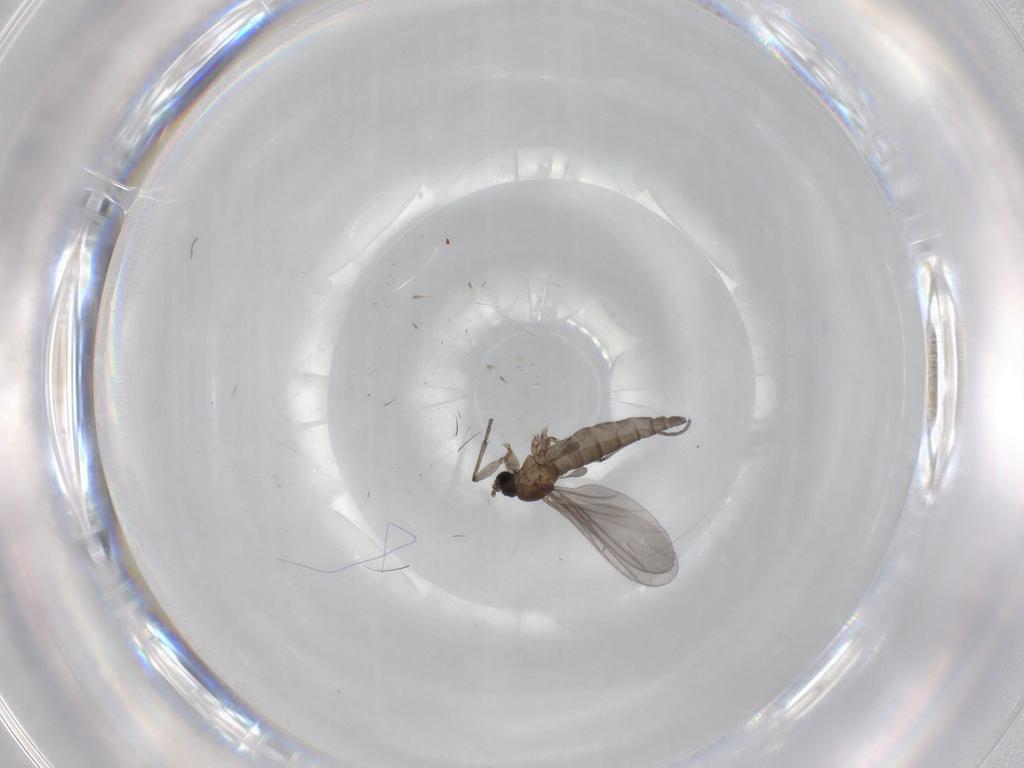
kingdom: Animalia
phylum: Arthropoda
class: Insecta
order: Diptera
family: Sciaridae
